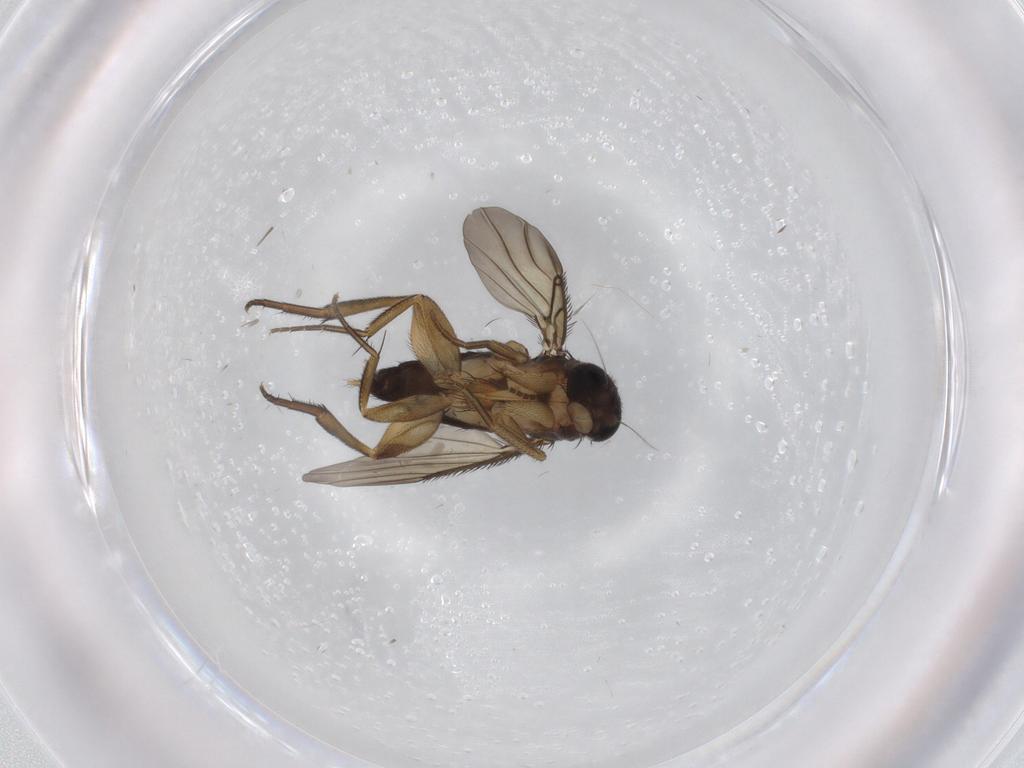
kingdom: Animalia
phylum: Arthropoda
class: Insecta
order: Diptera
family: Phoridae
